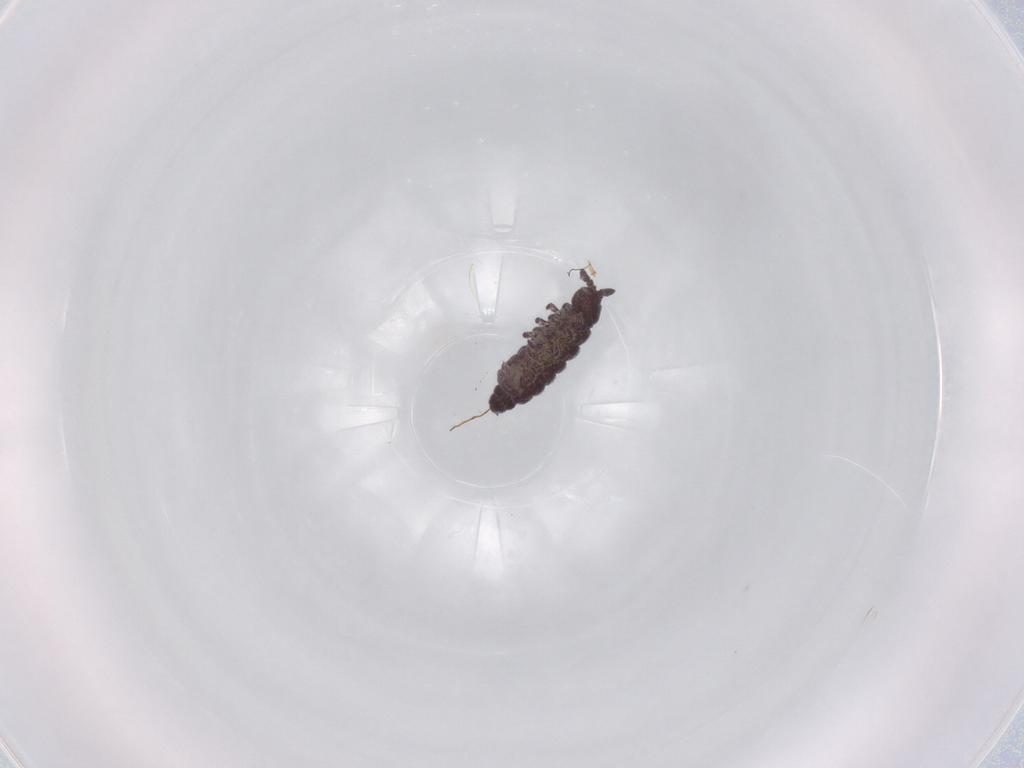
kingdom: Animalia
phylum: Arthropoda
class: Collembola
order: Poduromorpha
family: Hypogastruridae
